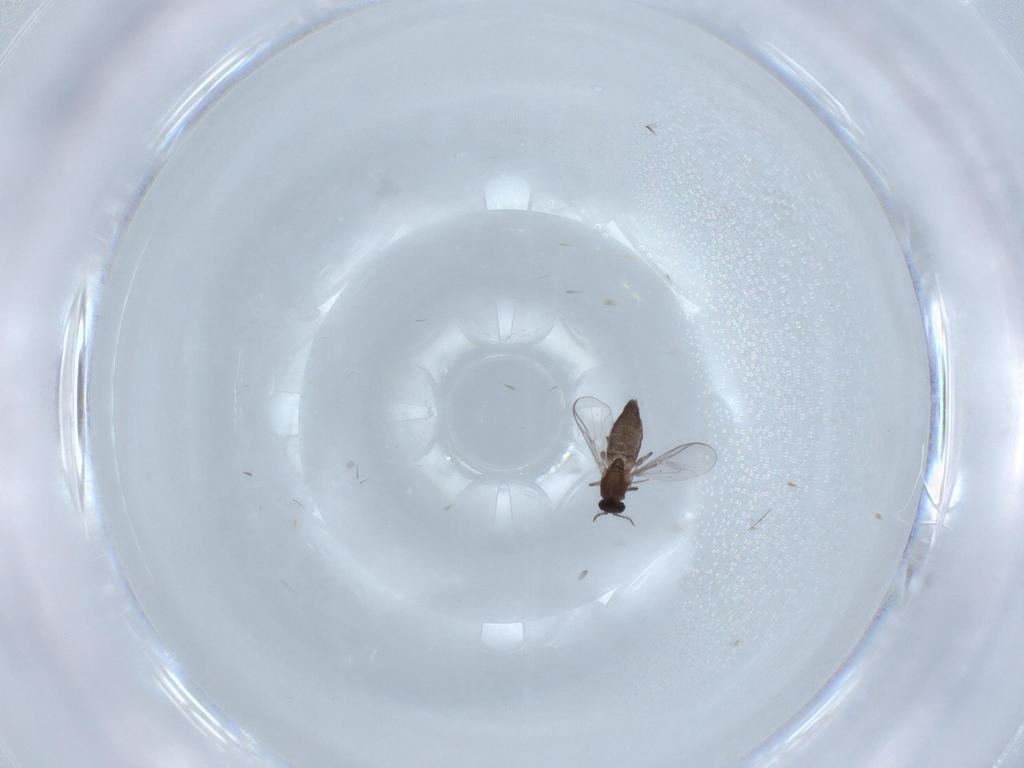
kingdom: Animalia
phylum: Arthropoda
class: Insecta
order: Diptera
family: Chironomidae
